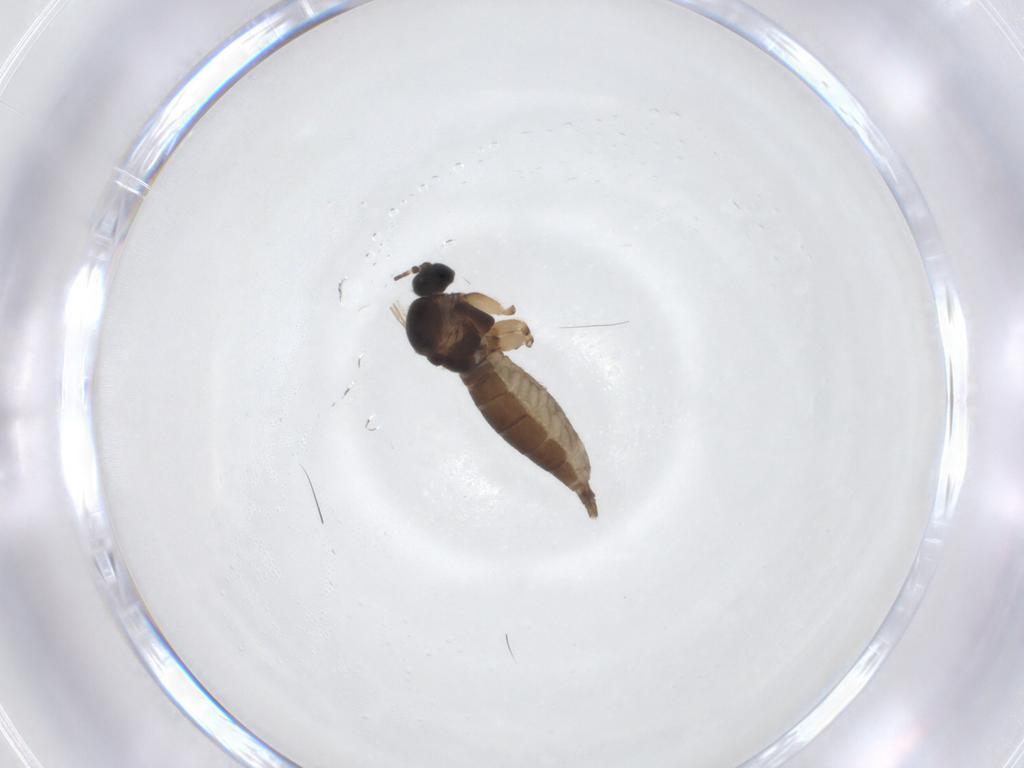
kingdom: Animalia
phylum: Arthropoda
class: Insecta
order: Diptera
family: Sciaridae
